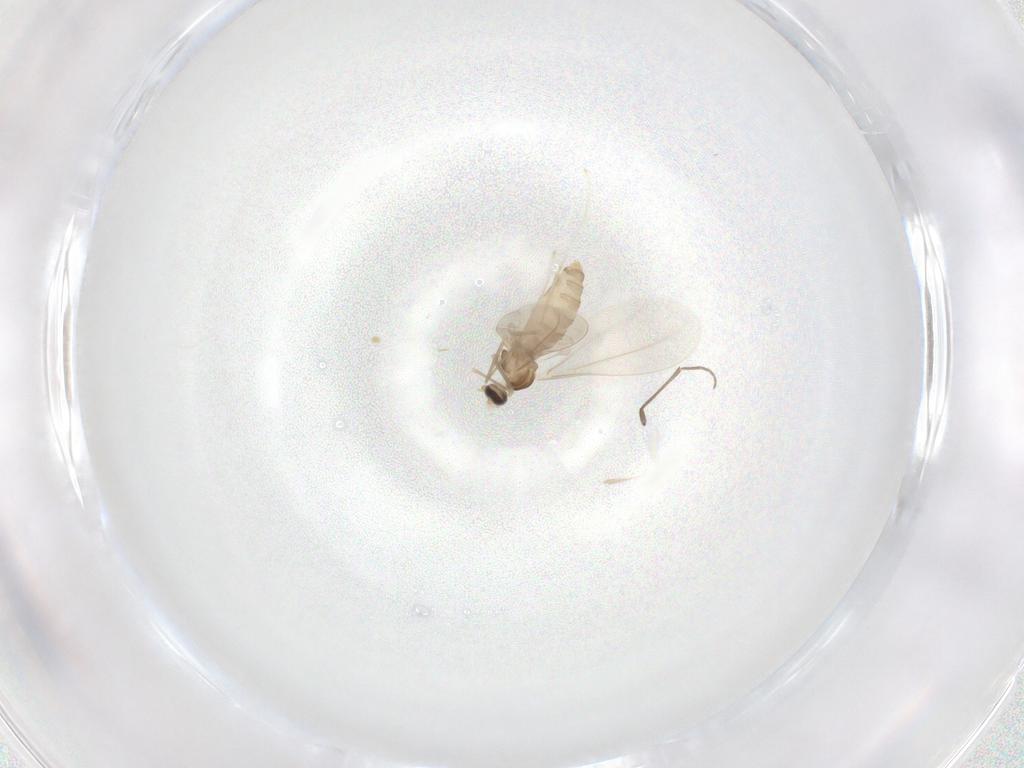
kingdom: Animalia
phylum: Arthropoda
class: Insecta
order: Diptera
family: Cecidomyiidae
